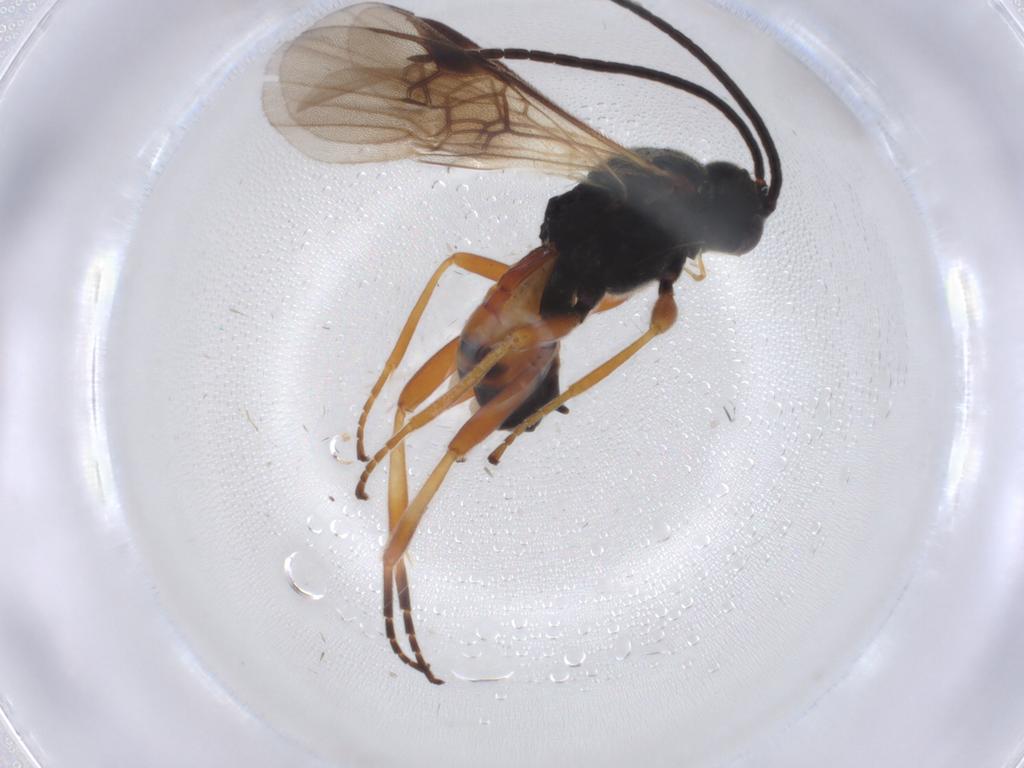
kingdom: Animalia
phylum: Arthropoda
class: Insecta
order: Hymenoptera
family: Braconidae
